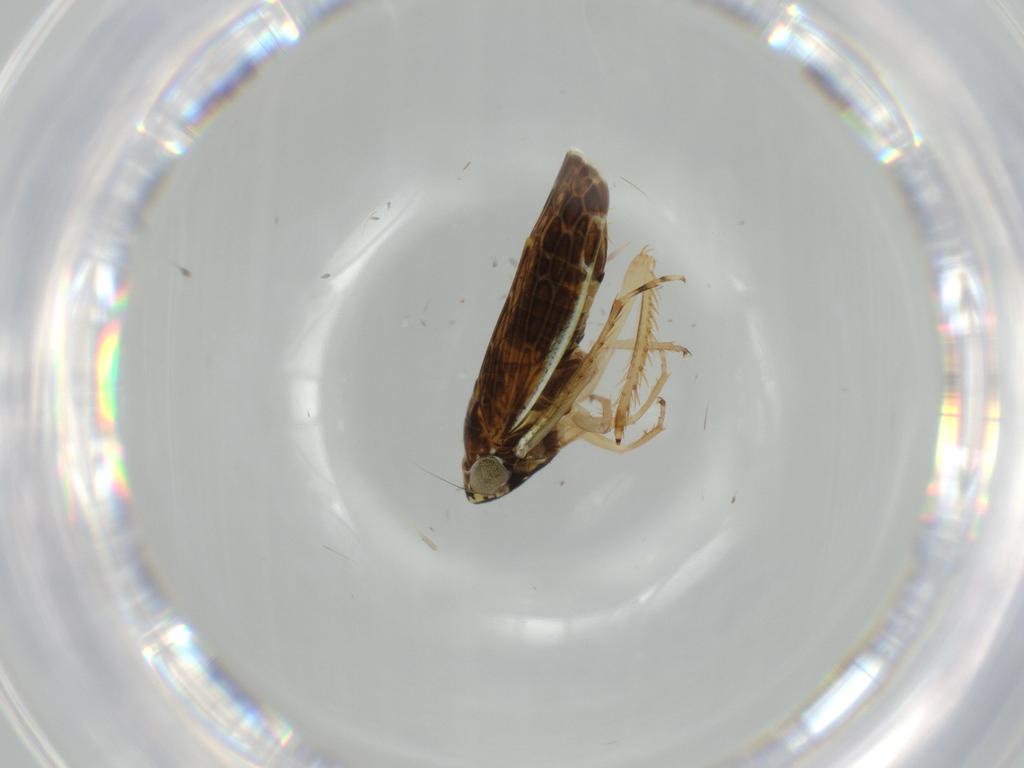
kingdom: Animalia
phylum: Arthropoda
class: Insecta
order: Hemiptera
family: Cicadellidae
